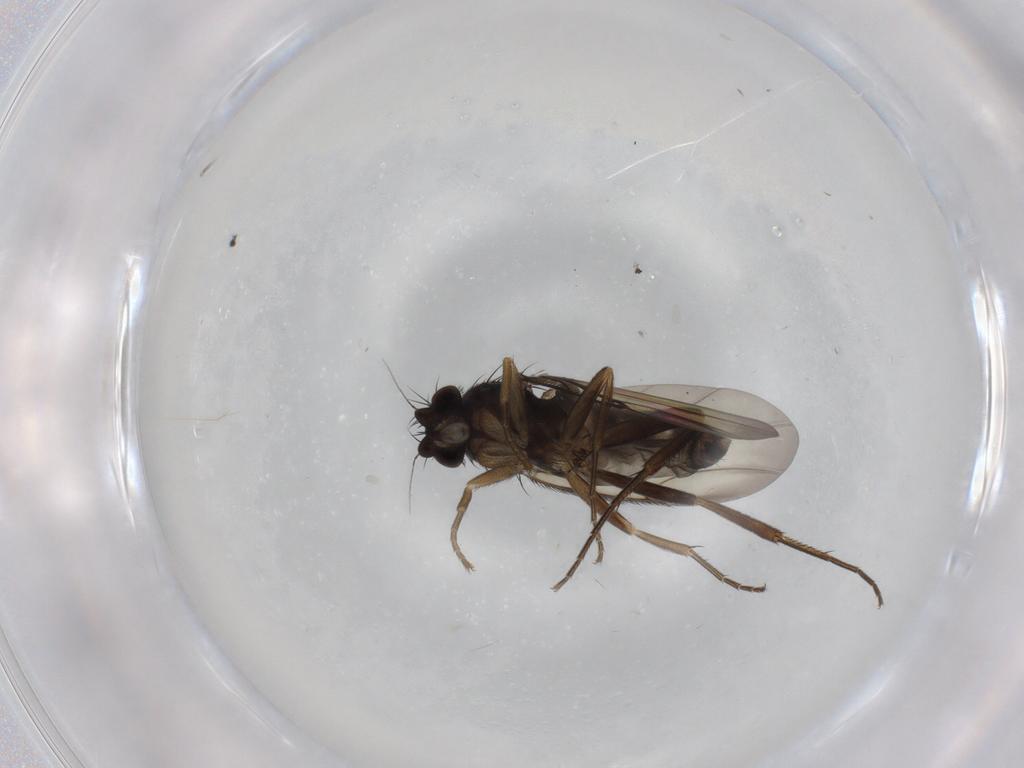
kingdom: Animalia
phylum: Arthropoda
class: Insecta
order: Diptera
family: Phoridae
